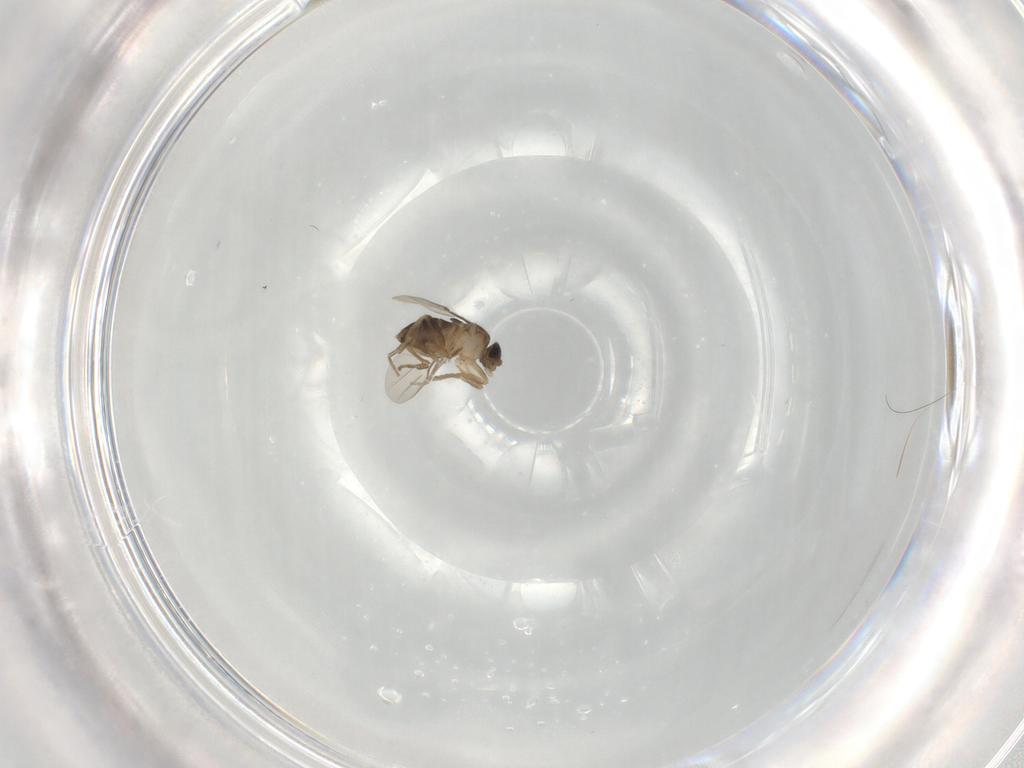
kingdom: Animalia
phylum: Arthropoda
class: Insecta
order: Diptera
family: Phoridae
